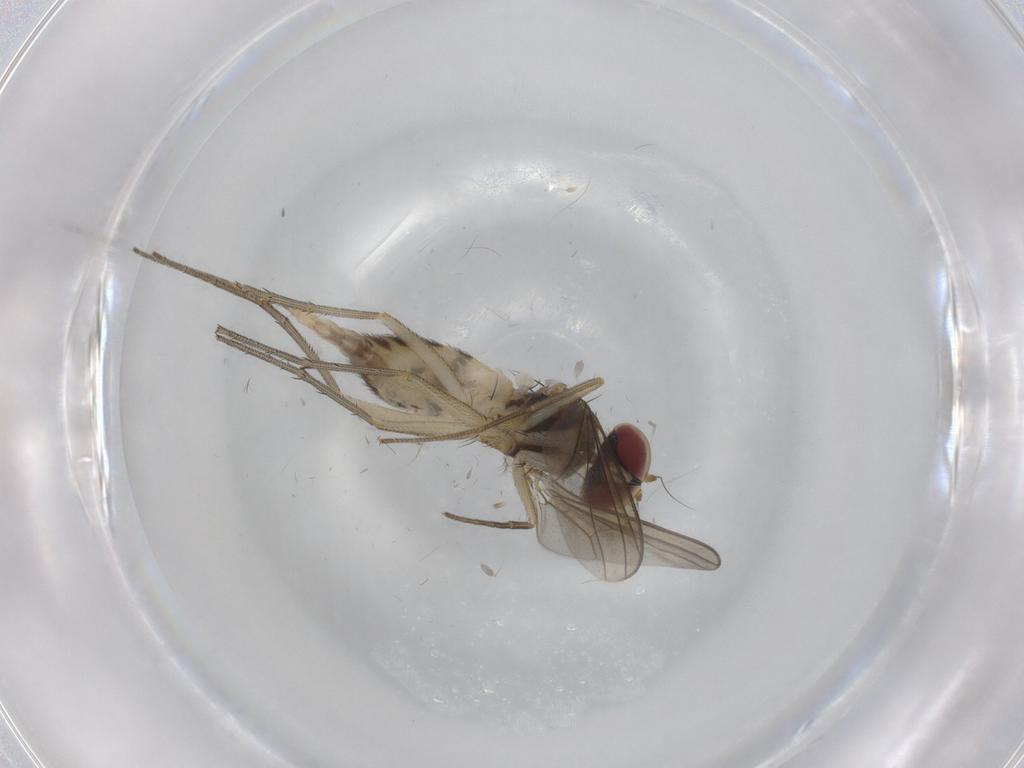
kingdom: Animalia
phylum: Arthropoda
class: Insecta
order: Diptera
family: Phoridae
